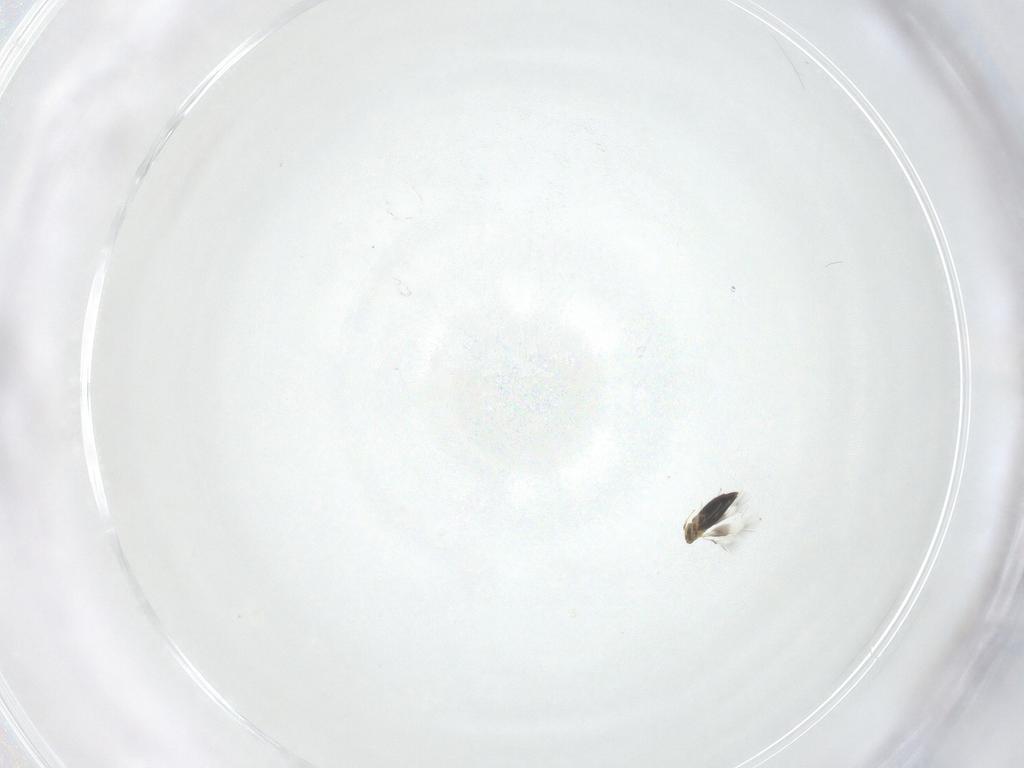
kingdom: Animalia
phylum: Arthropoda
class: Insecta
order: Hymenoptera
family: Signiphoridae
